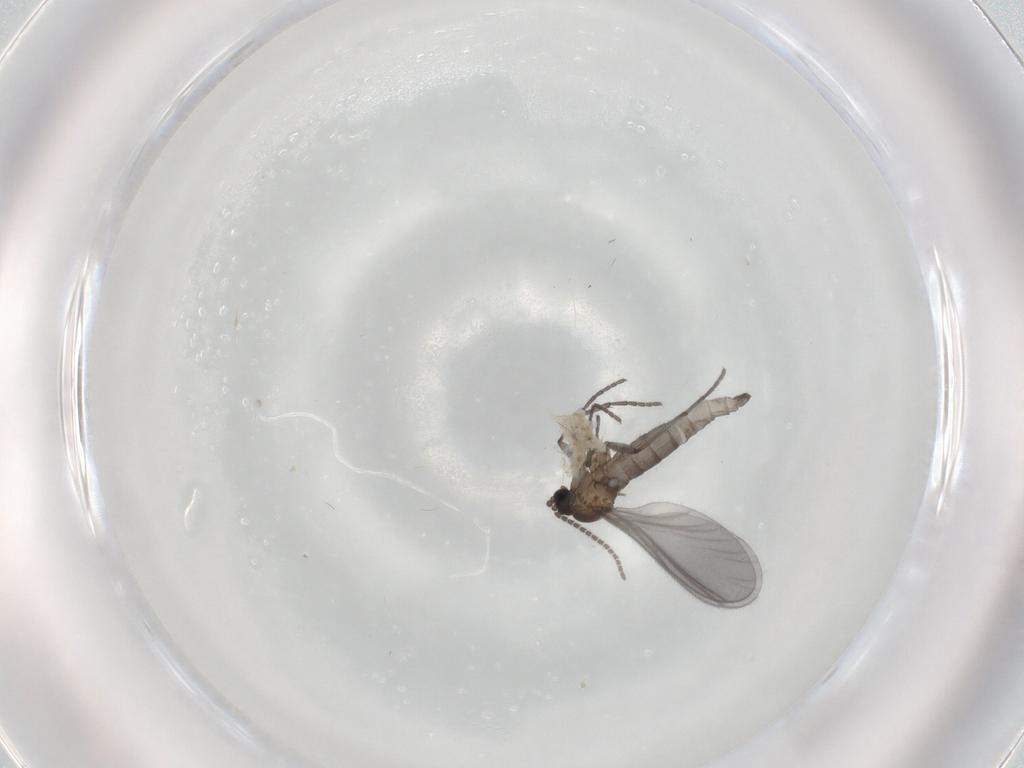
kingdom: Animalia
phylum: Arthropoda
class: Insecta
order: Diptera
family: Sciaridae
